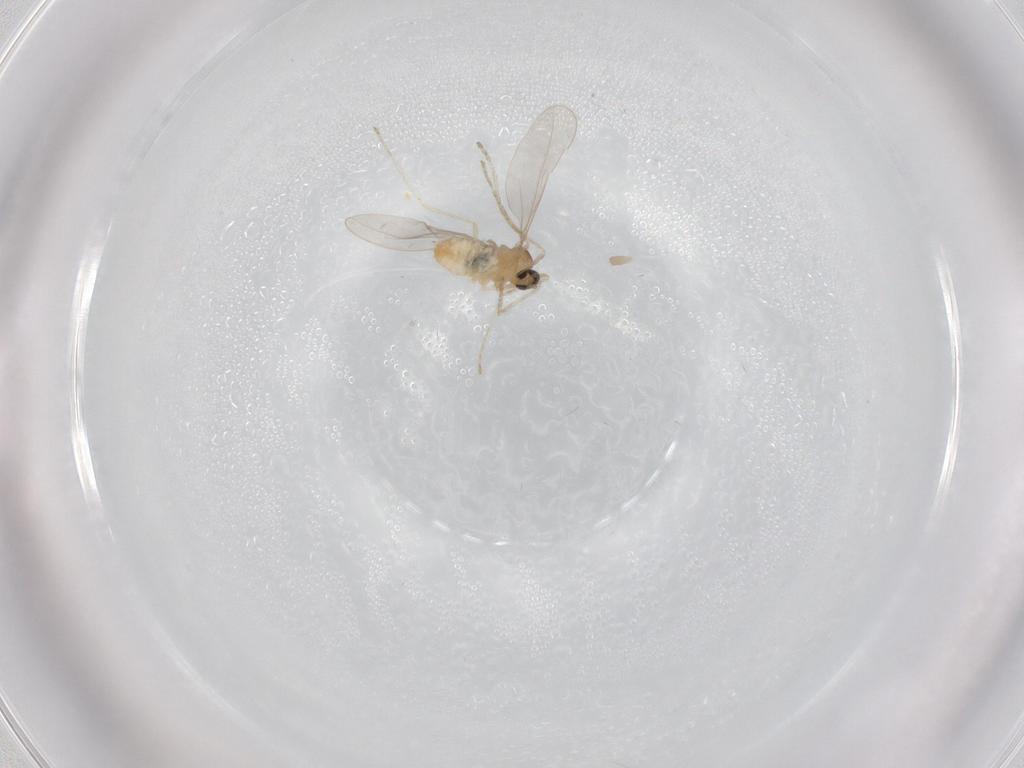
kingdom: Animalia
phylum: Arthropoda
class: Insecta
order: Diptera
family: Cecidomyiidae
